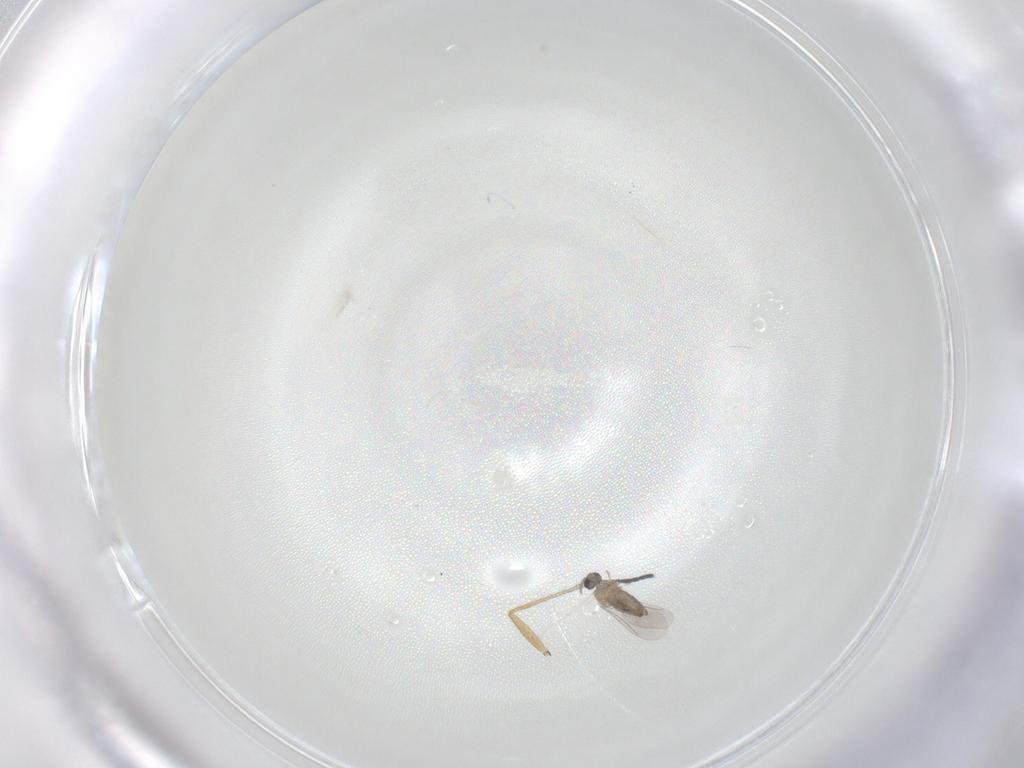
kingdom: Animalia
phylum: Arthropoda
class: Insecta
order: Diptera
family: Sciaridae
